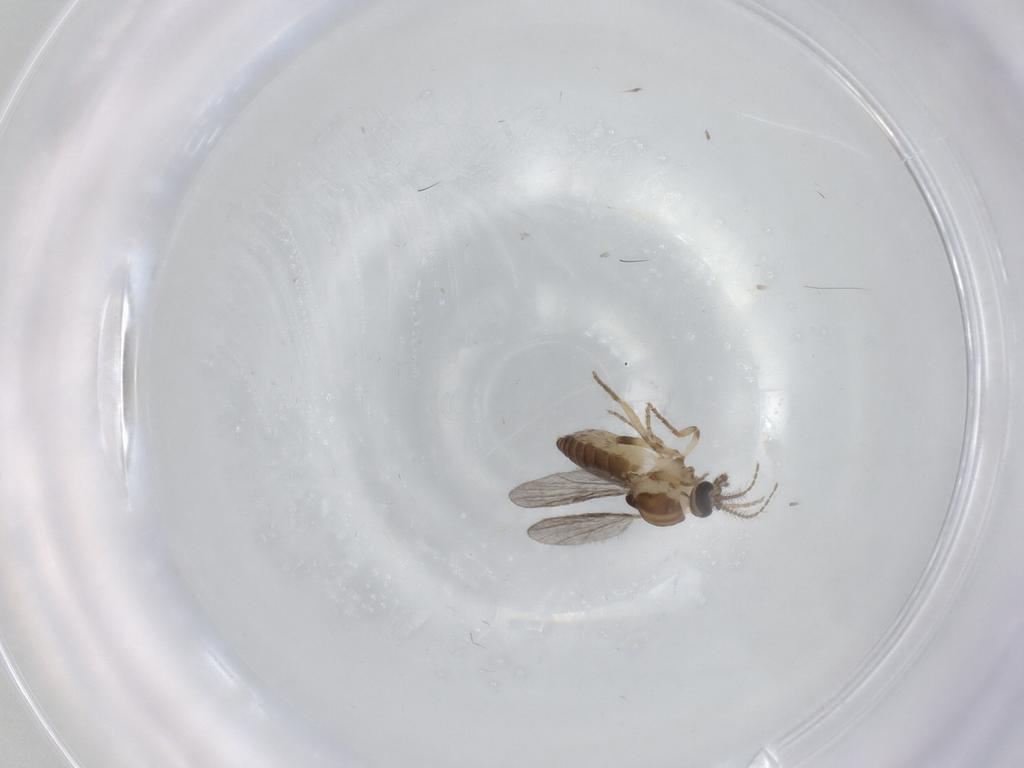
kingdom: Animalia
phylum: Arthropoda
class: Insecta
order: Diptera
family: Ceratopogonidae
